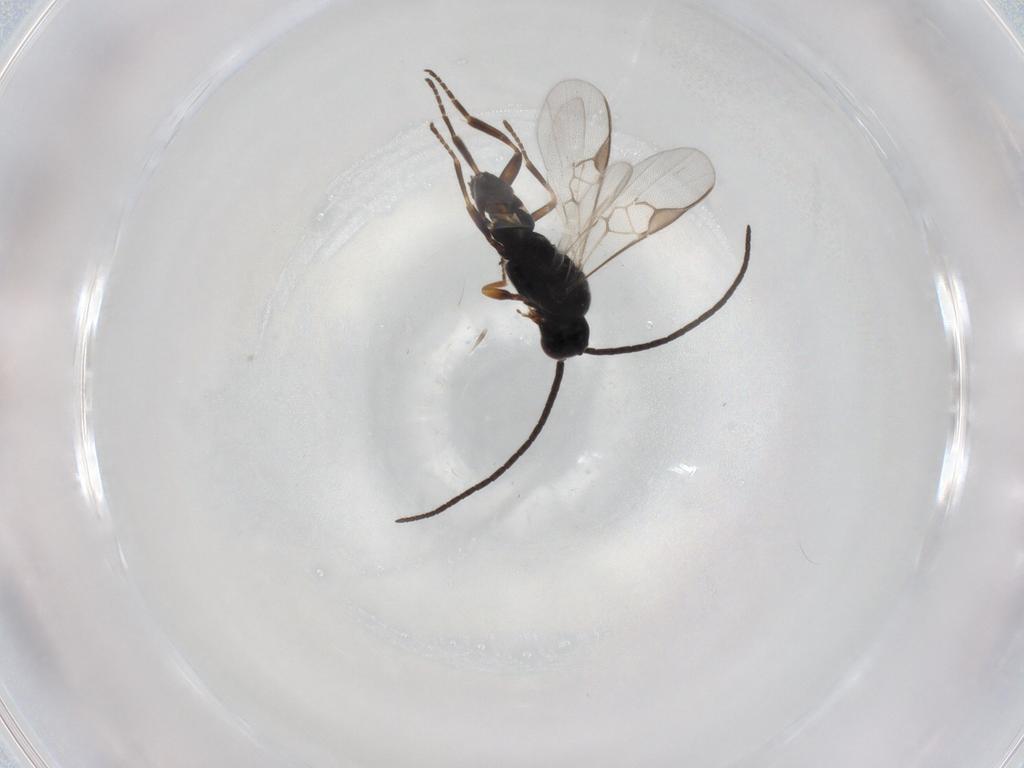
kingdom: Animalia
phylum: Arthropoda
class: Insecta
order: Hymenoptera
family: Braconidae
